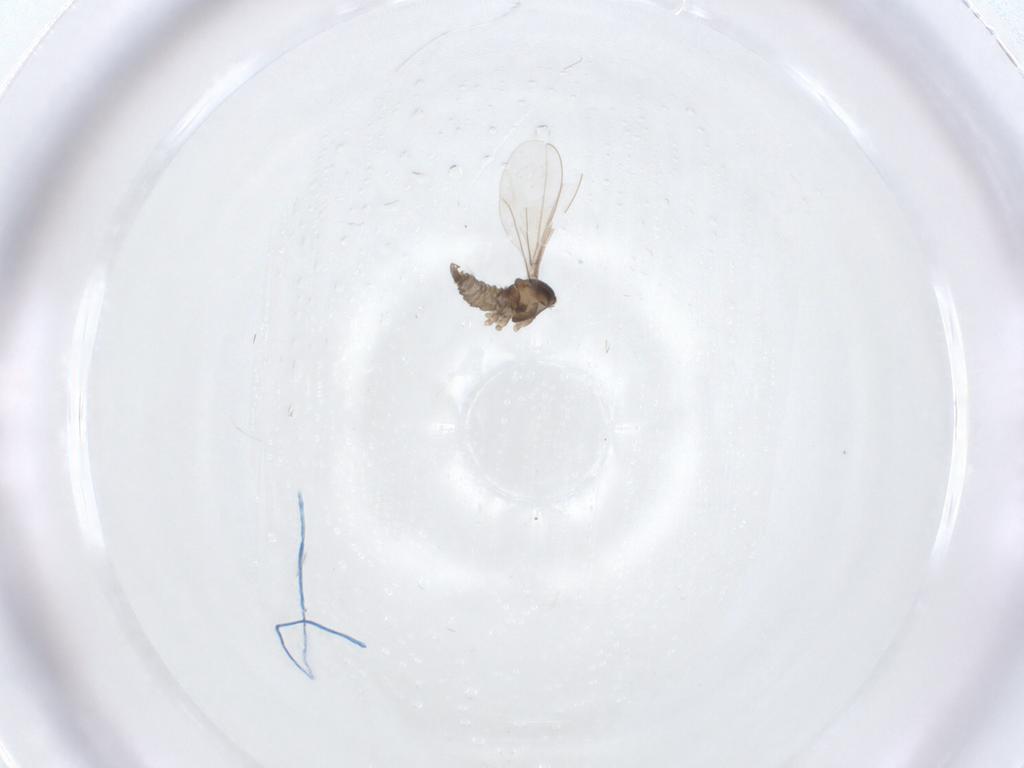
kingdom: Animalia
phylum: Arthropoda
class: Insecta
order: Diptera
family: Cecidomyiidae
